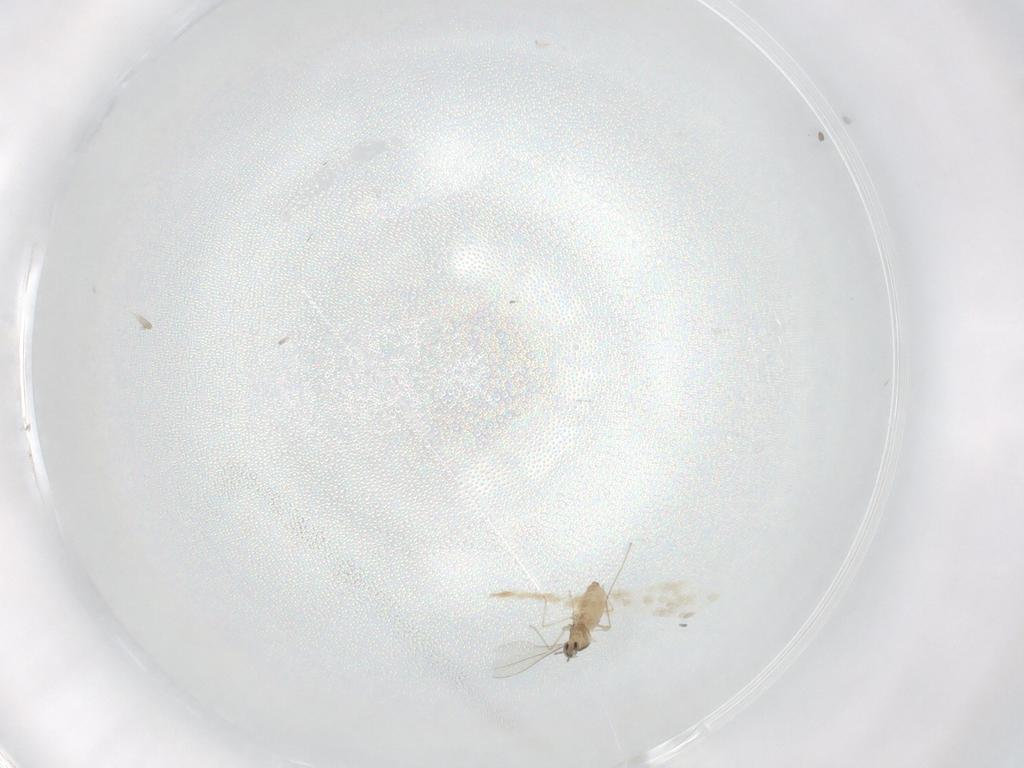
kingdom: Animalia
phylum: Arthropoda
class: Insecta
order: Diptera
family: Cecidomyiidae
